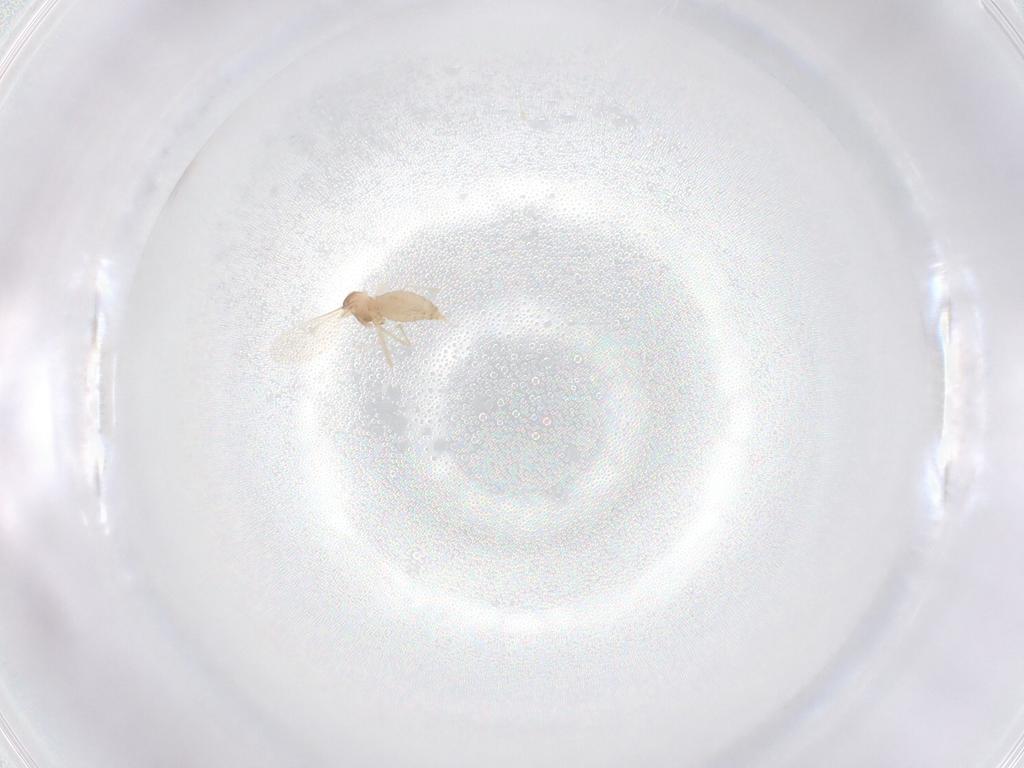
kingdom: Animalia
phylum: Arthropoda
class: Insecta
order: Diptera
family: Cecidomyiidae
